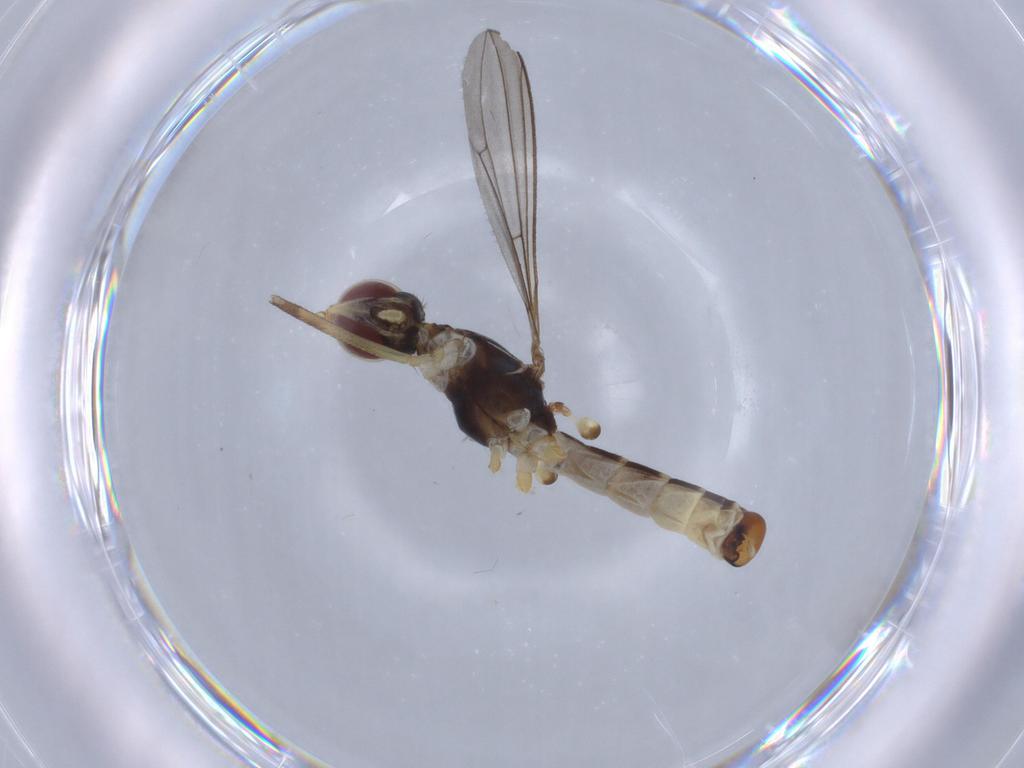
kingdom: Animalia
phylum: Arthropoda
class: Insecta
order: Diptera
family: Micropezidae
